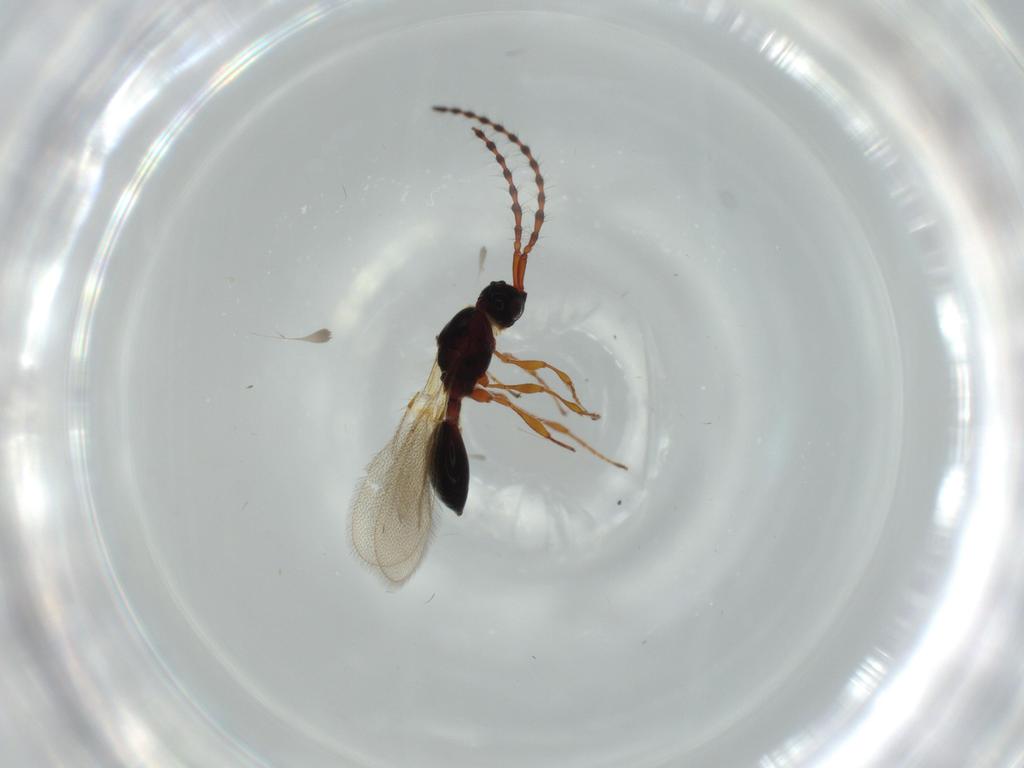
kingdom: Animalia
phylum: Arthropoda
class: Insecta
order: Hymenoptera
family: Diapriidae
